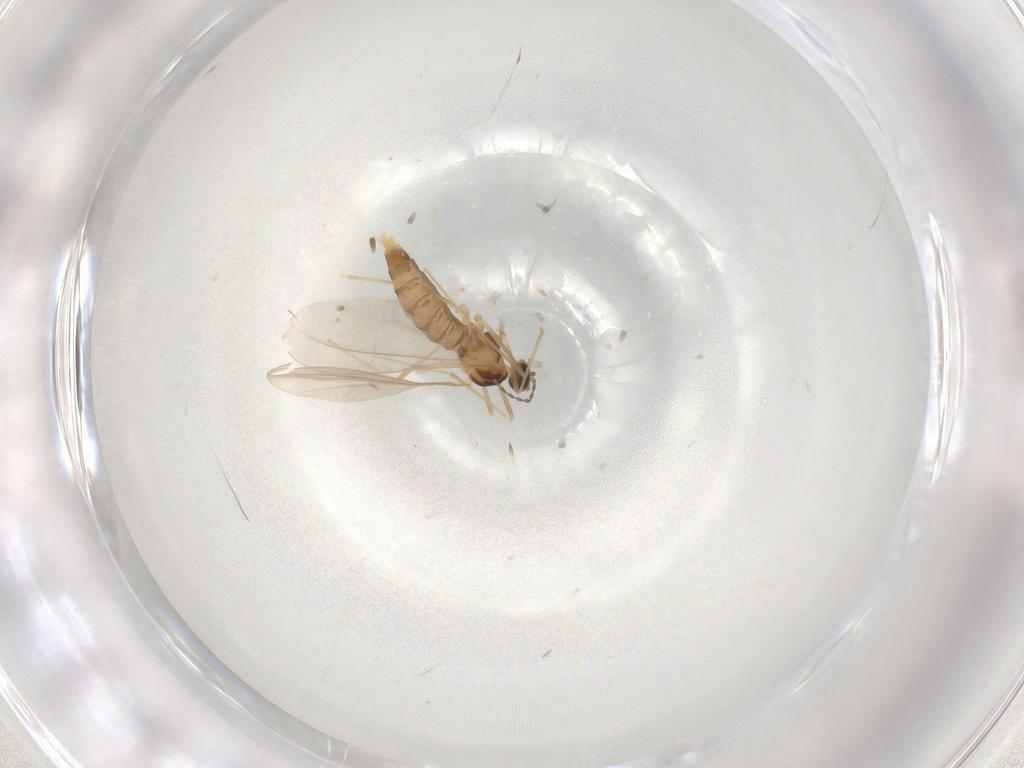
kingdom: Animalia
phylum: Arthropoda
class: Insecta
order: Diptera
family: Cecidomyiidae
